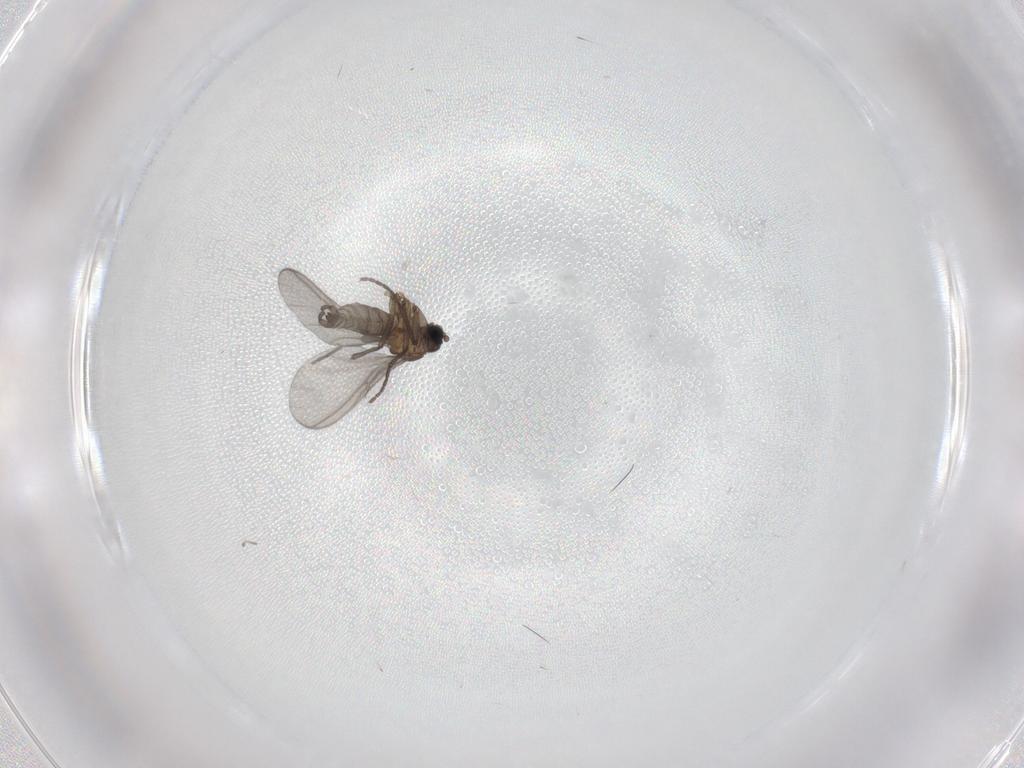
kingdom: Animalia
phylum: Arthropoda
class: Insecta
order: Diptera
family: Sciaridae
